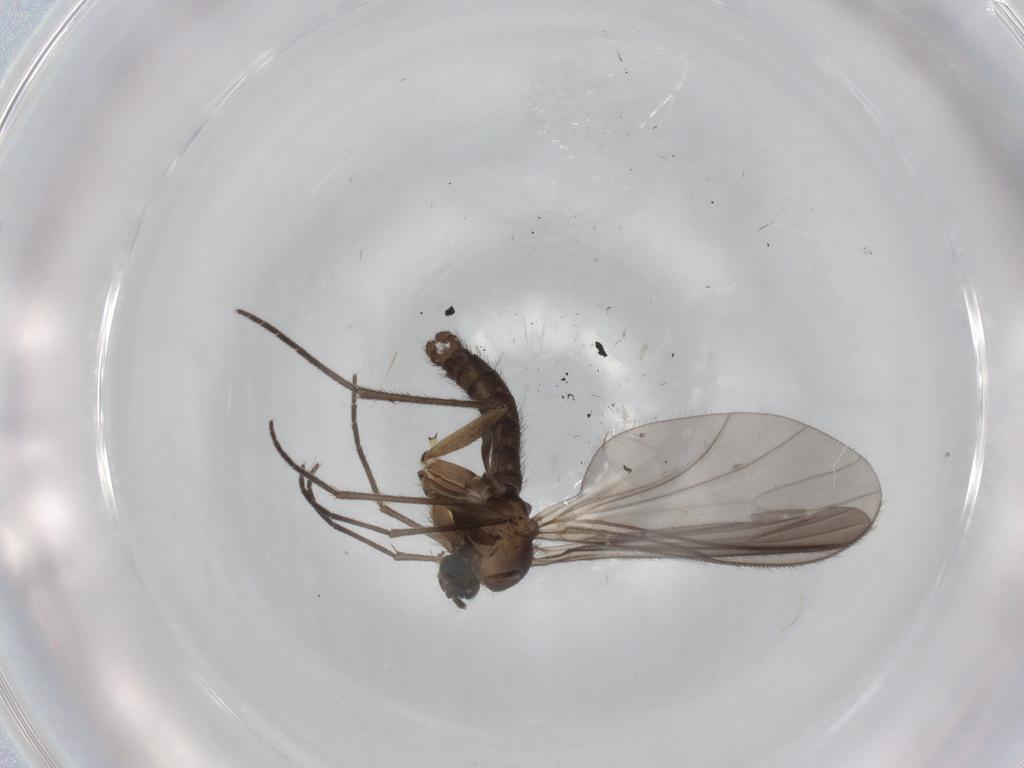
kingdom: Animalia
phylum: Arthropoda
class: Insecta
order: Diptera
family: Sciaridae
